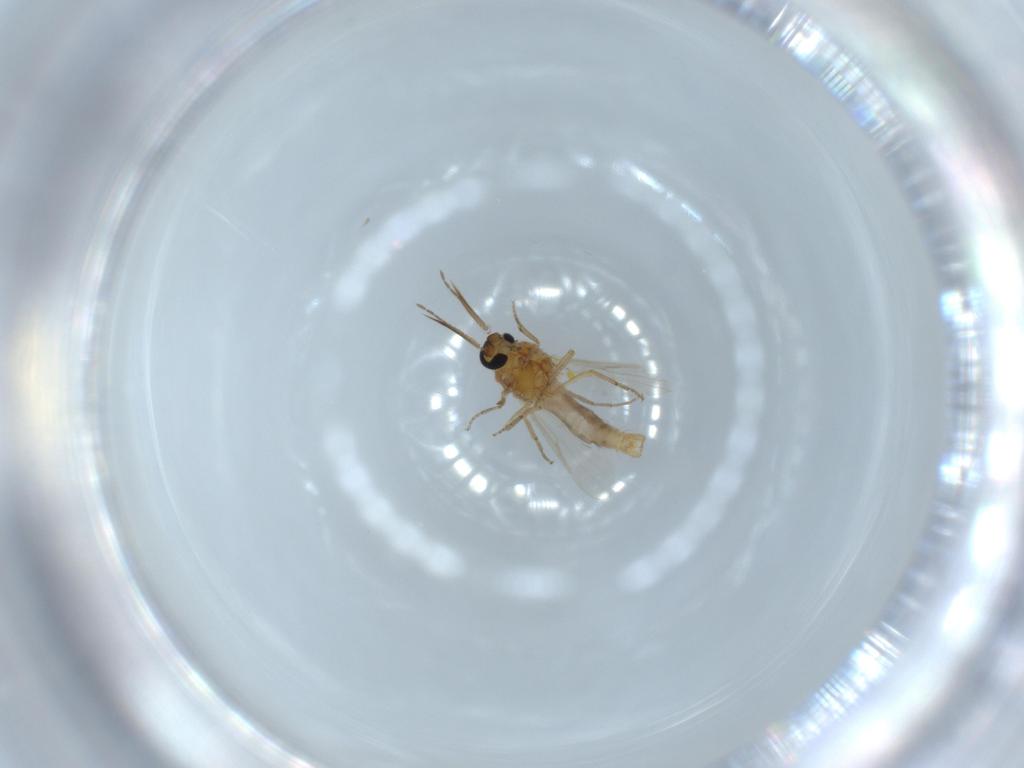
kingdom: Animalia
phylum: Arthropoda
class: Insecta
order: Diptera
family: Ceratopogonidae
